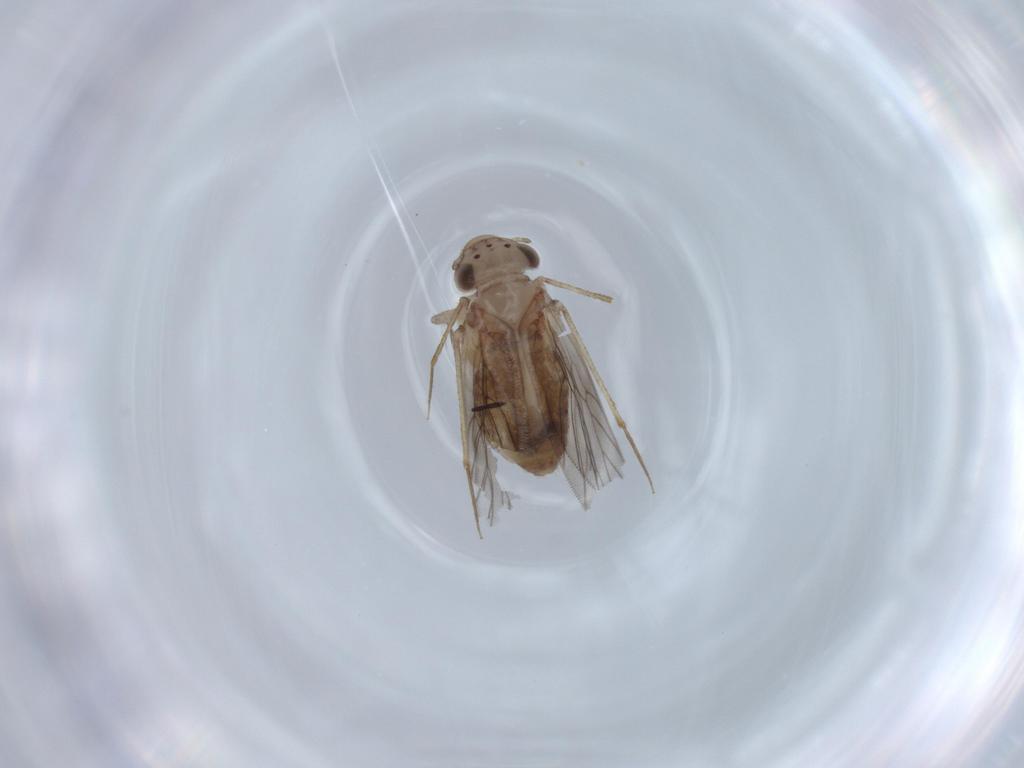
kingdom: Animalia
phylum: Arthropoda
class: Insecta
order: Psocodea
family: Lepidopsocidae
